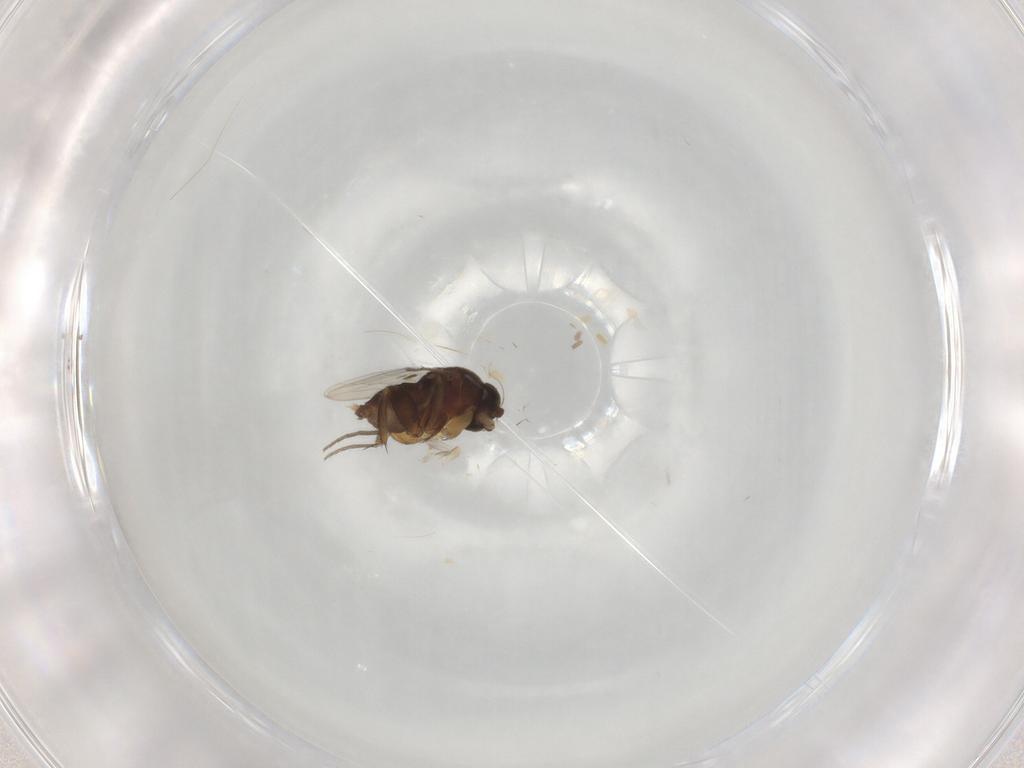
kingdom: Animalia
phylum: Arthropoda
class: Insecta
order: Diptera
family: Phoridae
